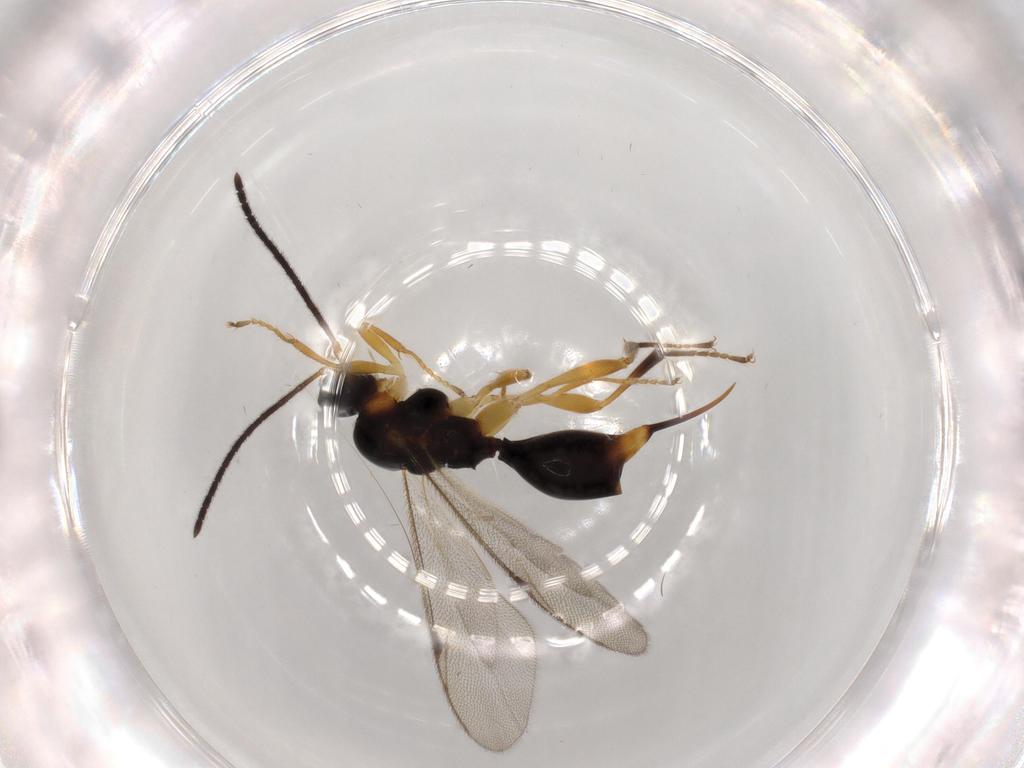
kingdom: Animalia
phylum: Arthropoda
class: Insecta
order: Hymenoptera
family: Proctotrupidae
